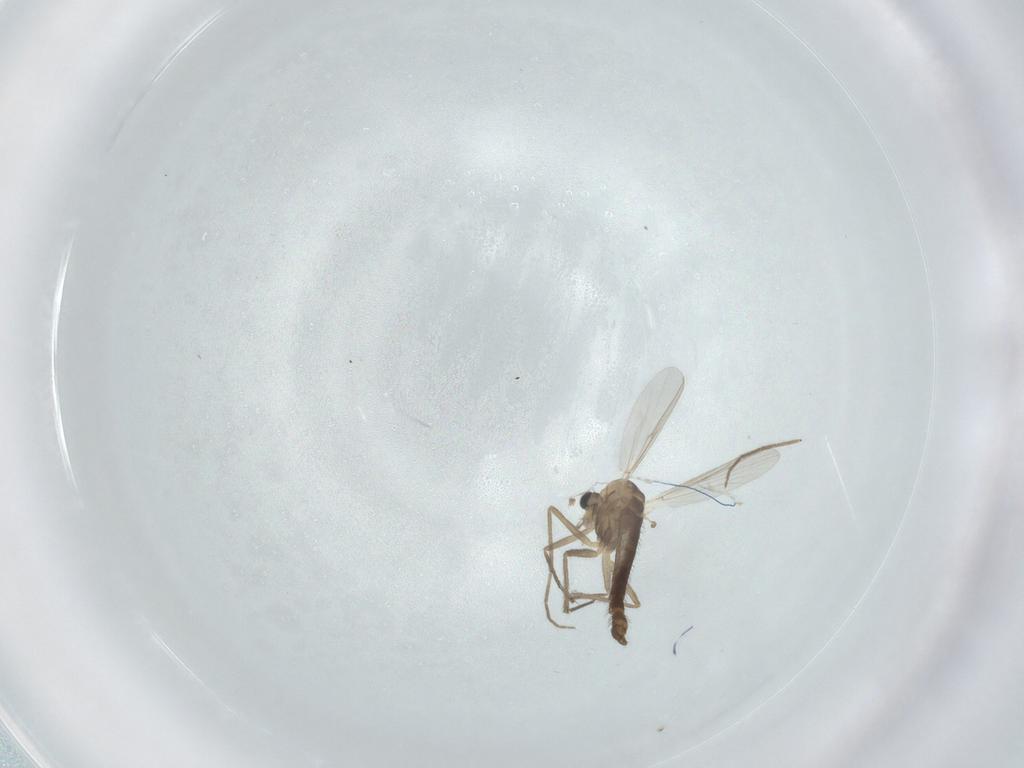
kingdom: Animalia
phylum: Arthropoda
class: Insecta
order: Diptera
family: Chironomidae
